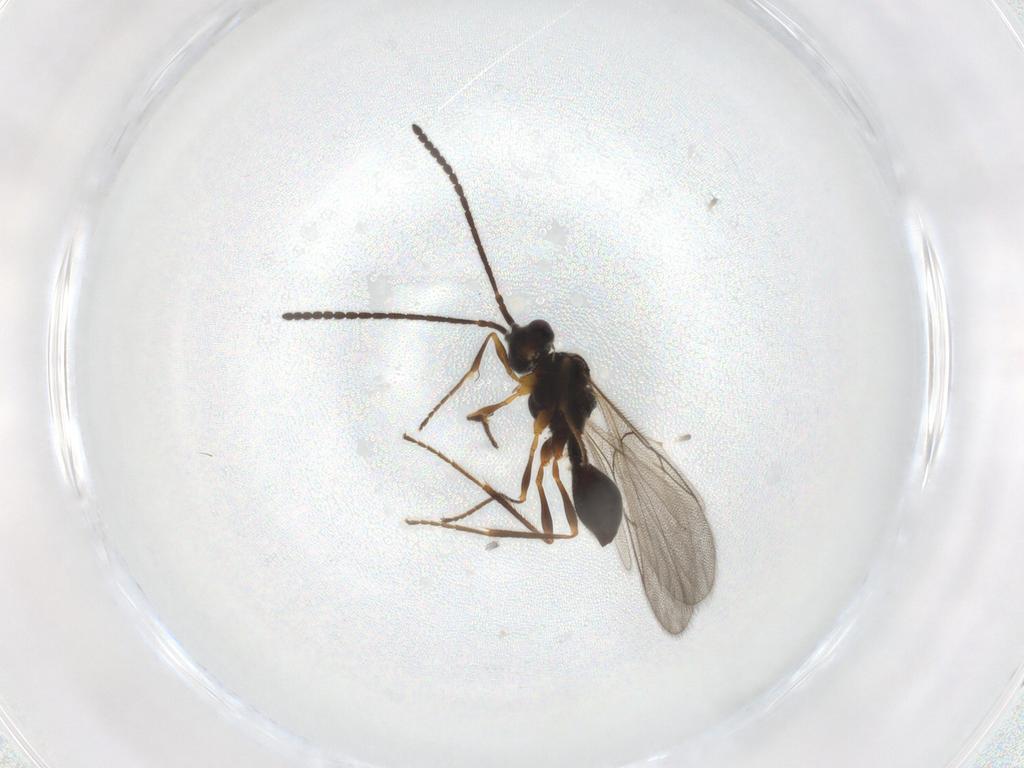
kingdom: Animalia
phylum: Arthropoda
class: Insecta
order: Hymenoptera
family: Diapriidae
